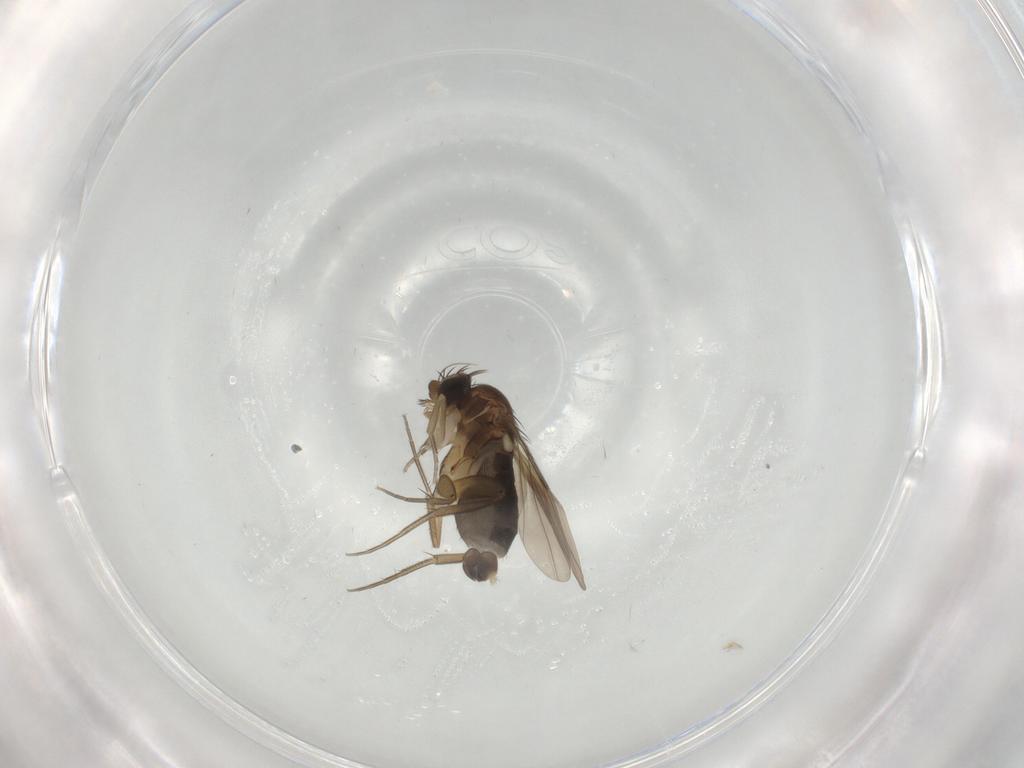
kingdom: Animalia
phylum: Arthropoda
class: Insecta
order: Diptera
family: Phoridae
